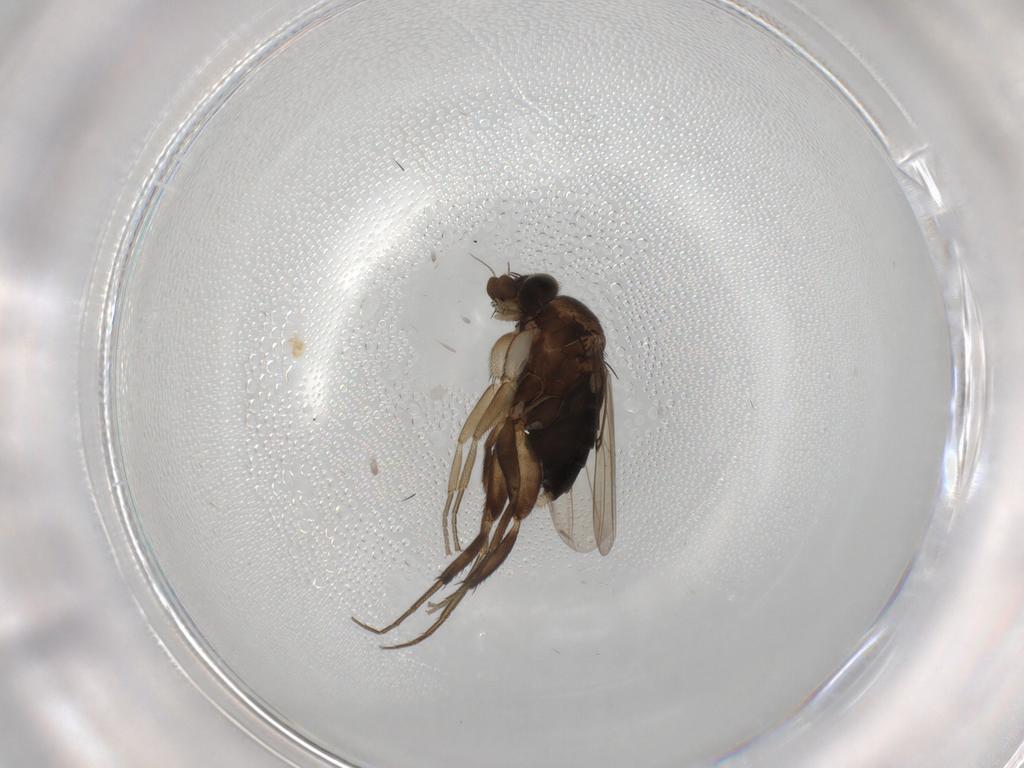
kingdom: Animalia
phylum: Arthropoda
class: Insecta
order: Diptera
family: Phoridae
